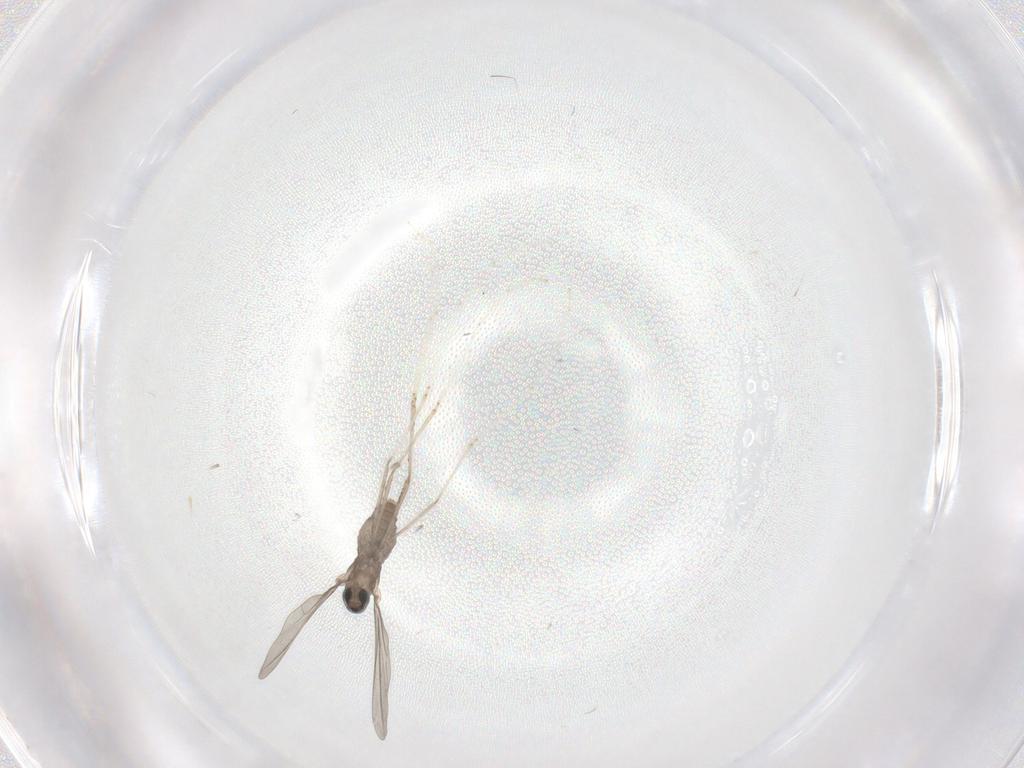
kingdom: Animalia
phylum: Arthropoda
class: Insecta
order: Diptera
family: Cecidomyiidae
